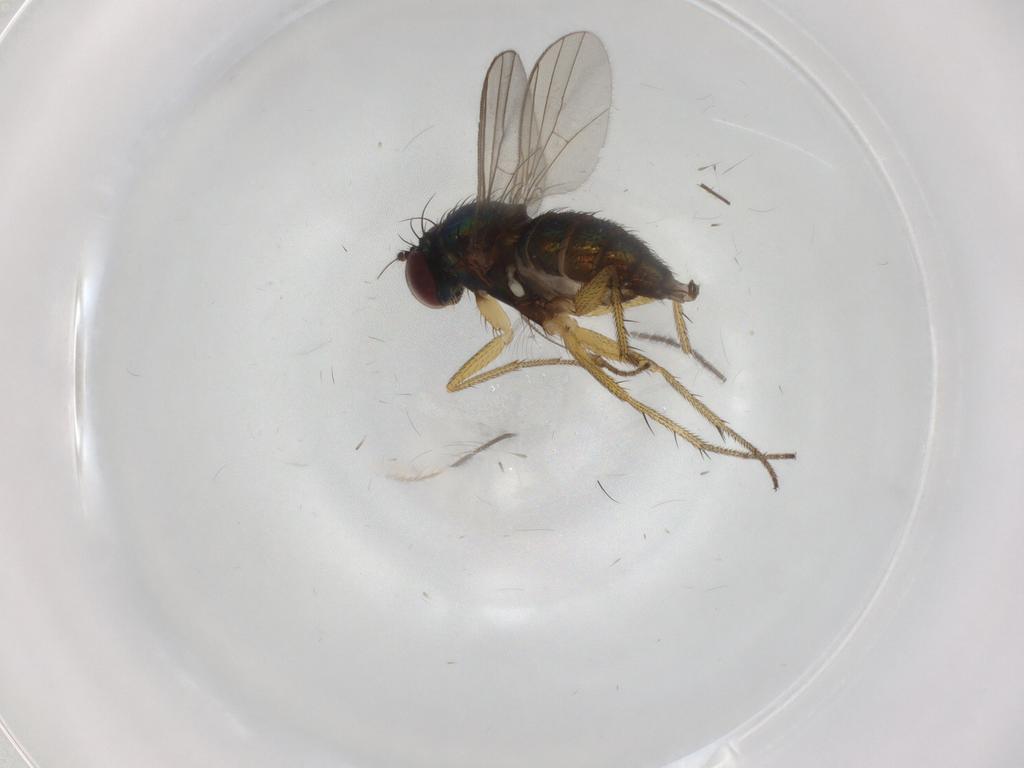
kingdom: Animalia
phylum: Arthropoda
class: Insecta
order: Diptera
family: Chironomidae
